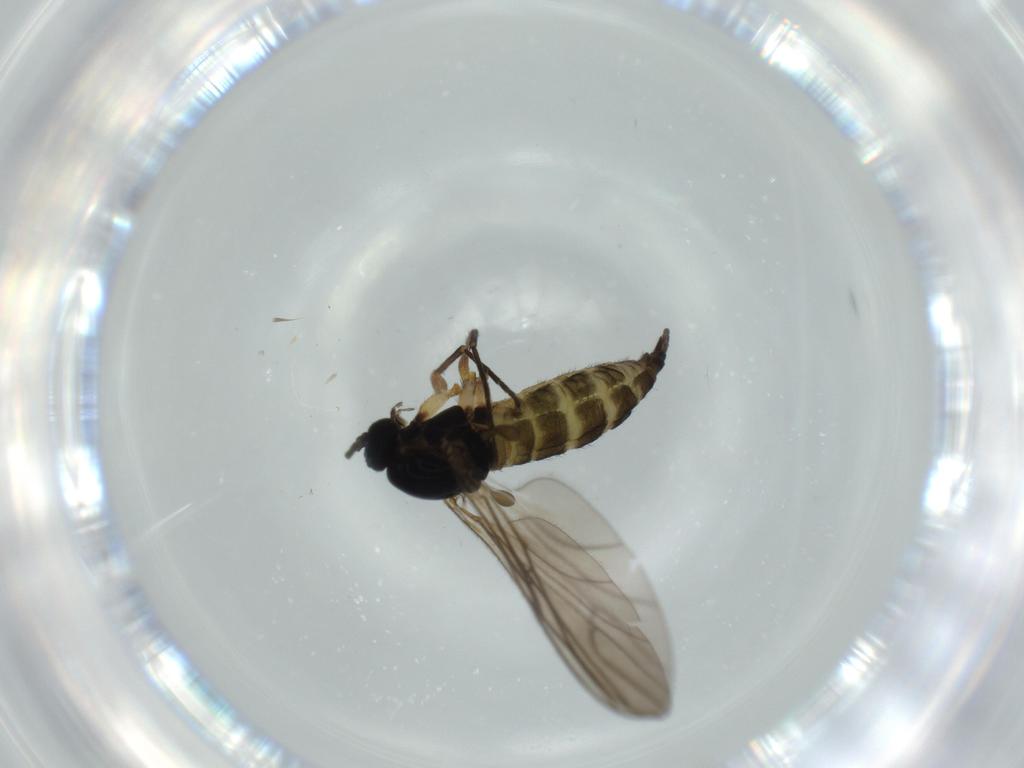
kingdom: Animalia
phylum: Arthropoda
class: Insecta
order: Diptera
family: Sciaridae
